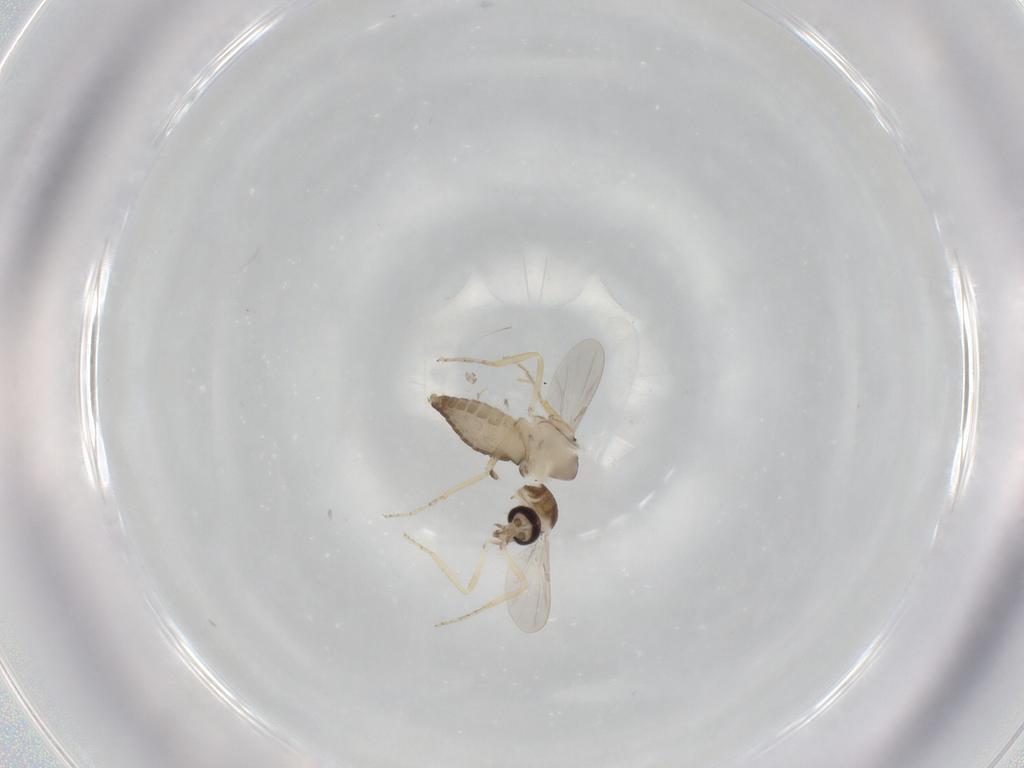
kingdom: Animalia
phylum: Arthropoda
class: Insecta
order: Diptera
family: Ceratopogonidae
